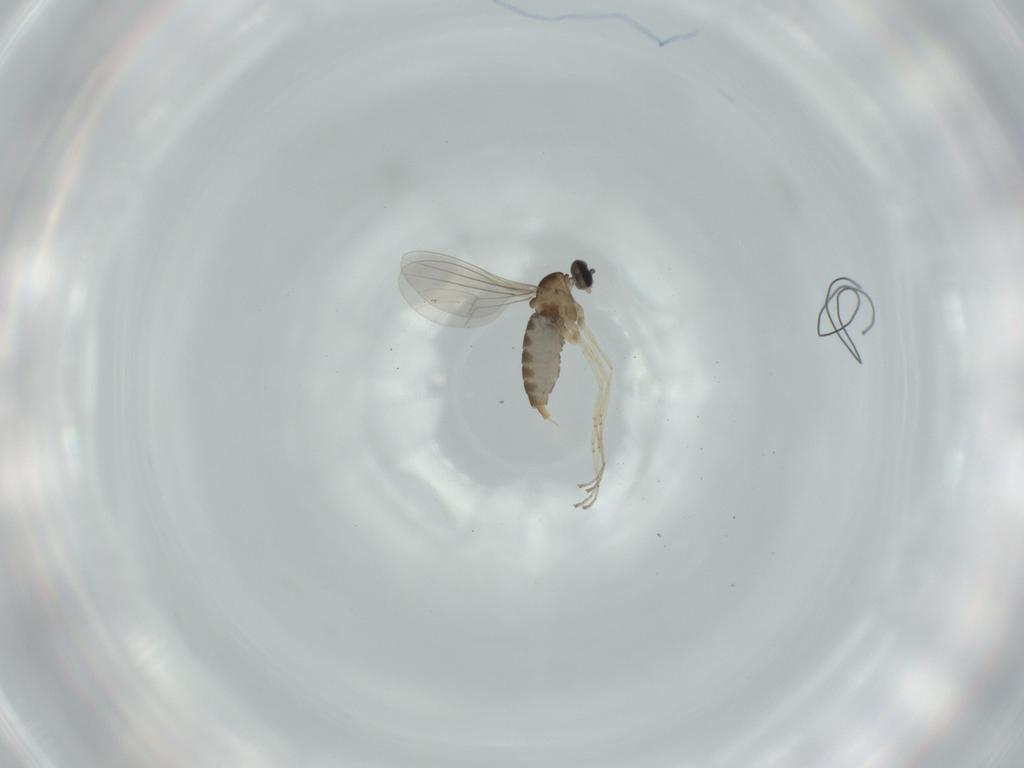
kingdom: Animalia
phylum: Arthropoda
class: Insecta
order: Diptera
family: Cecidomyiidae
